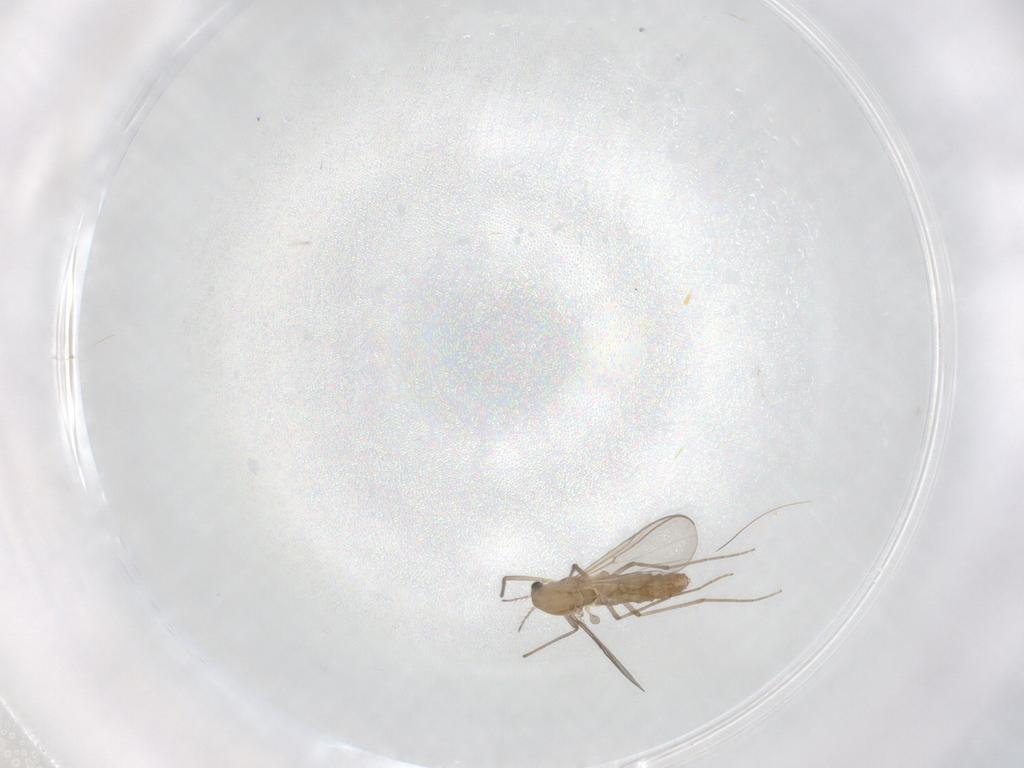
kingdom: Animalia
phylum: Arthropoda
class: Insecta
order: Diptera
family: Chironomidae
